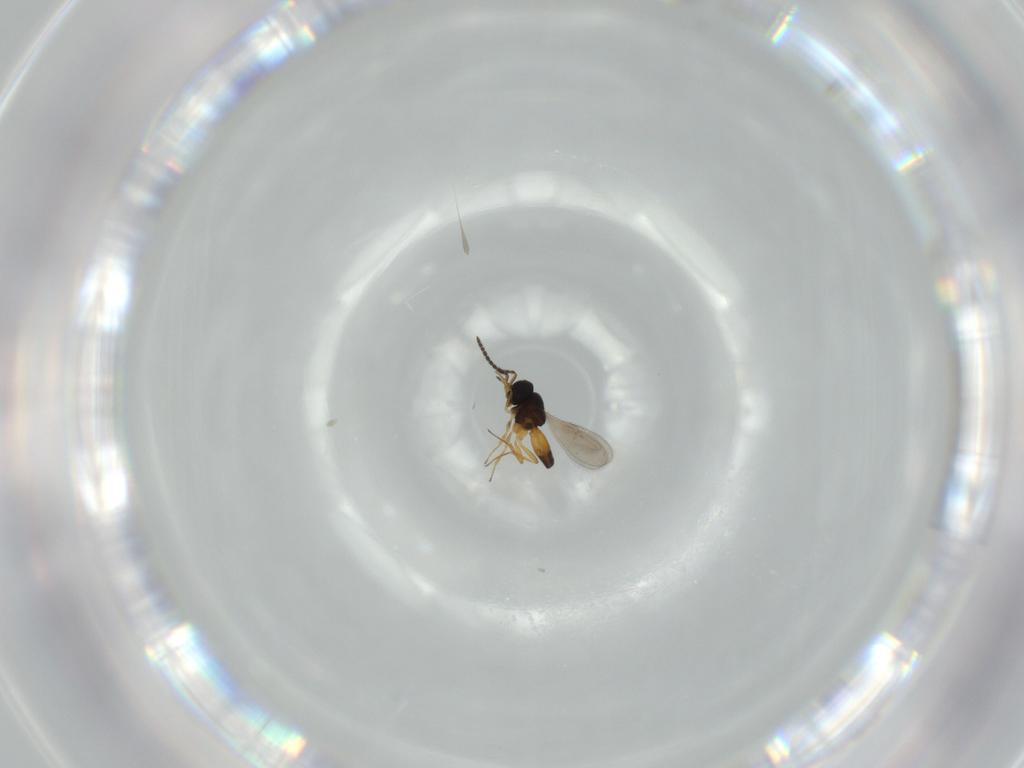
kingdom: Animalia
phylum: Arthropoda
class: Insecta
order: Hymenoptera
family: Scelionidae
